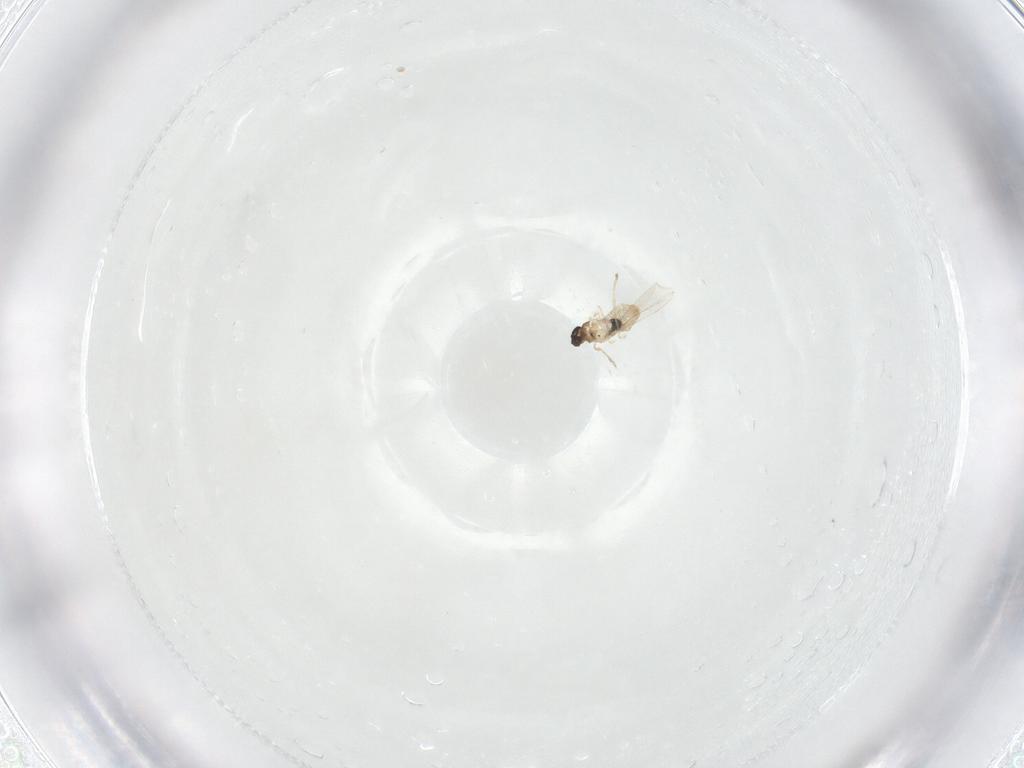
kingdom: Animalia
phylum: Arthropoda
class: Insecta
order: Diptera
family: Cecidomyiidae
